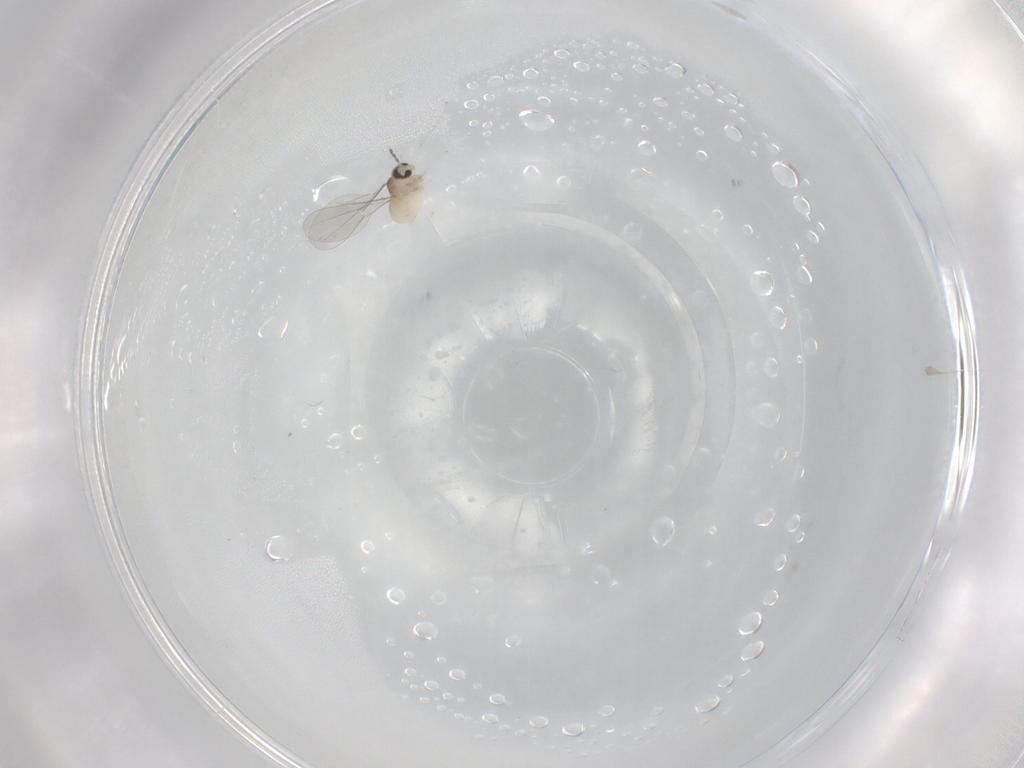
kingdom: Animalia
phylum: Arthropoda
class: Insecta
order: Diptera
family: Cecidomyiidae
